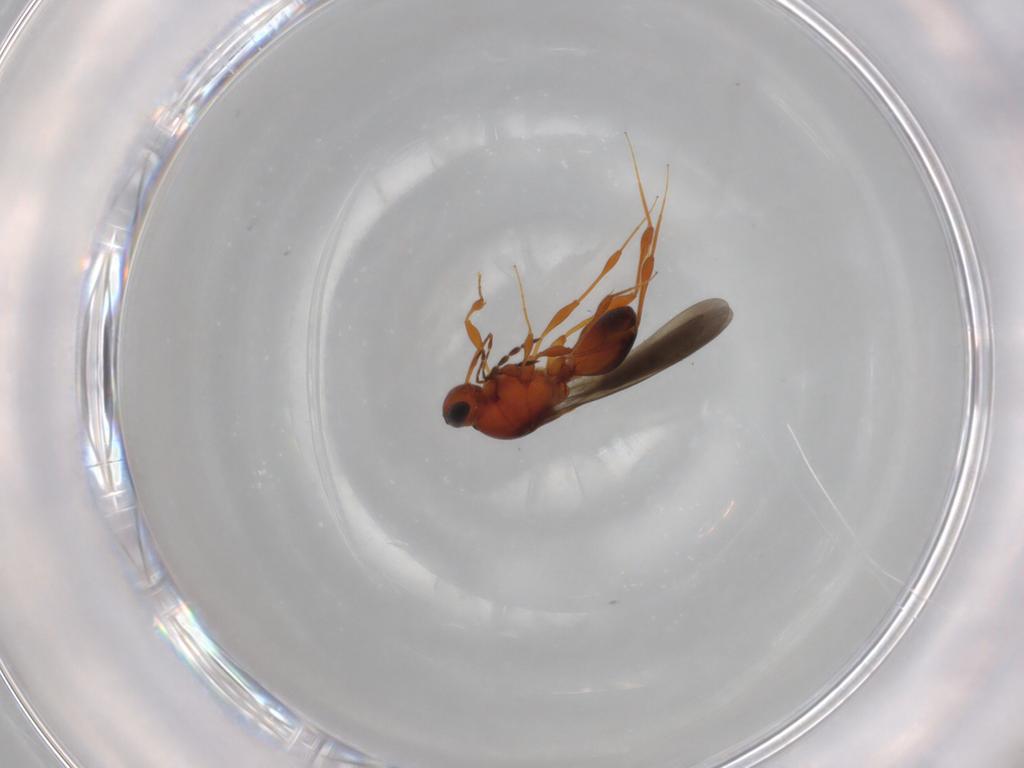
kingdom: Animalia
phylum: Arthropoda
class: Insecta
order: Hymenoptera
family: Platygastridae
